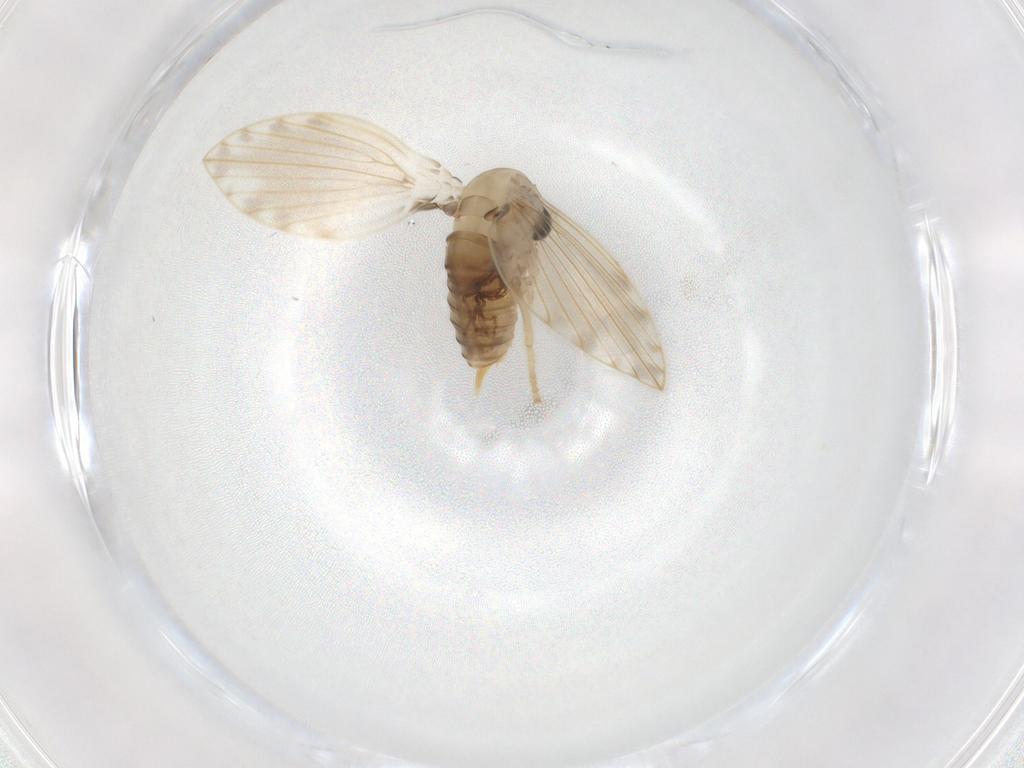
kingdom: Animalia
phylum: Arthropoda
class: Insecta
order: Diptera
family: Psychodidae
